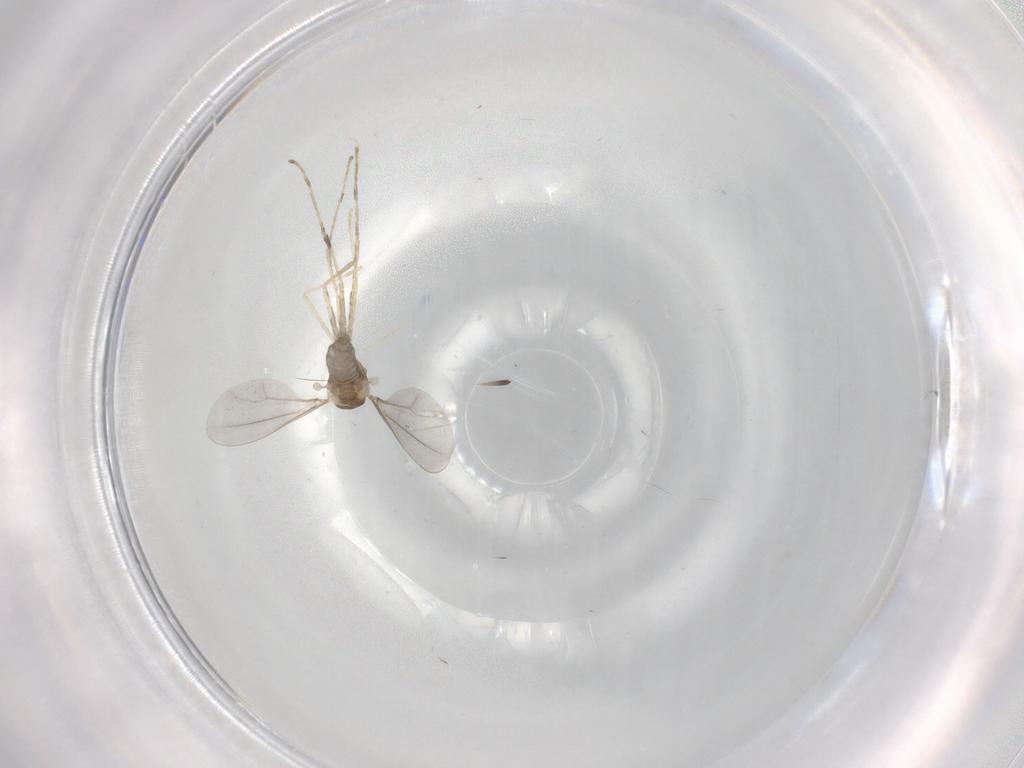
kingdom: Animalia
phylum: Arthropoda
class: Insecta
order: Diptera
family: Cecidomyiidae
